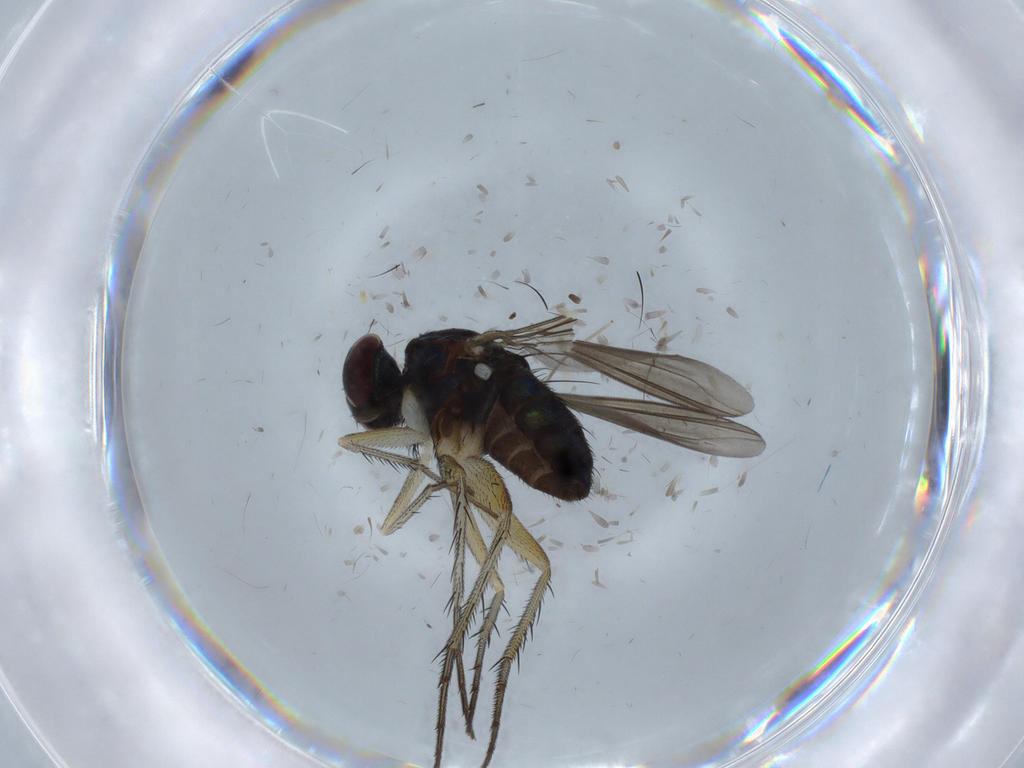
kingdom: Animalia
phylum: Arthropoda
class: Insecta
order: Diptera
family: Dolichopodidae
